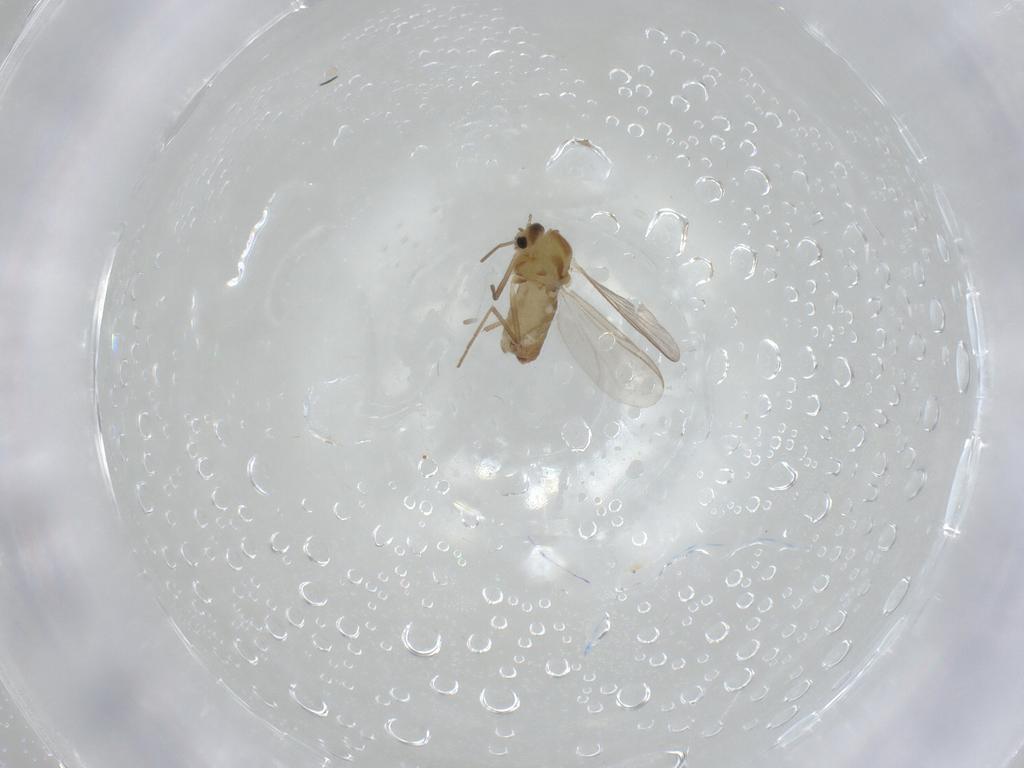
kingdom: Animalia
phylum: Arthropoda
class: Insecta
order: Diptera
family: Chironomidae
